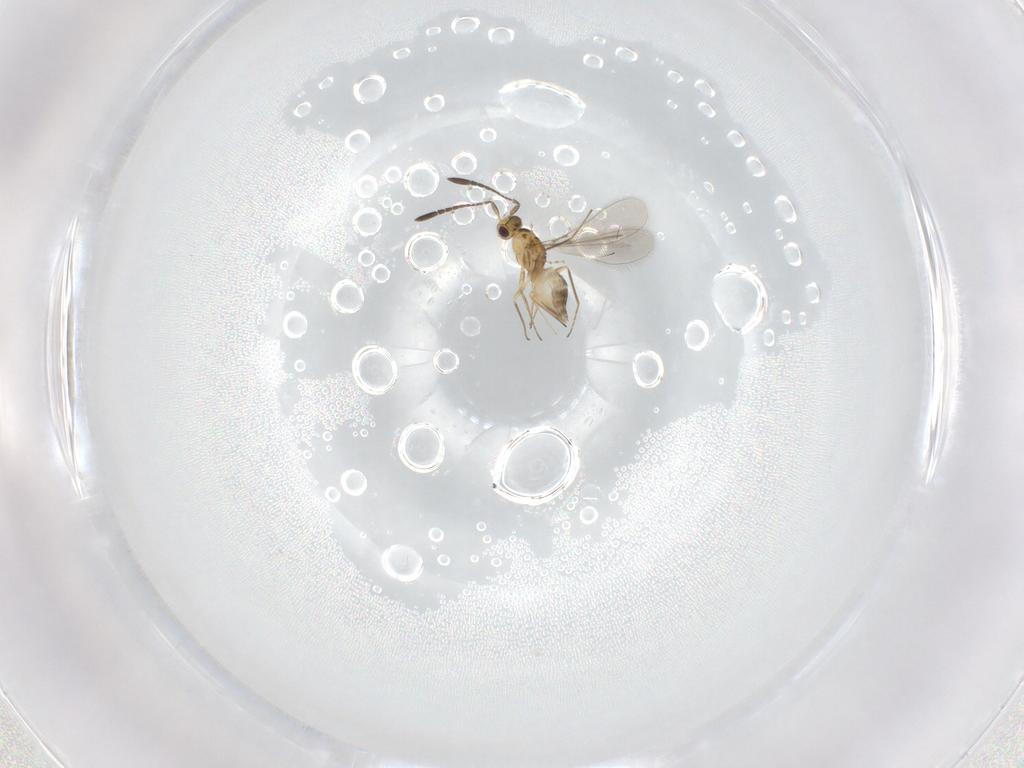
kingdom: Animalia
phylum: Arthropoda
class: Insecta
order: Hymenoptera
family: Mymaridae
